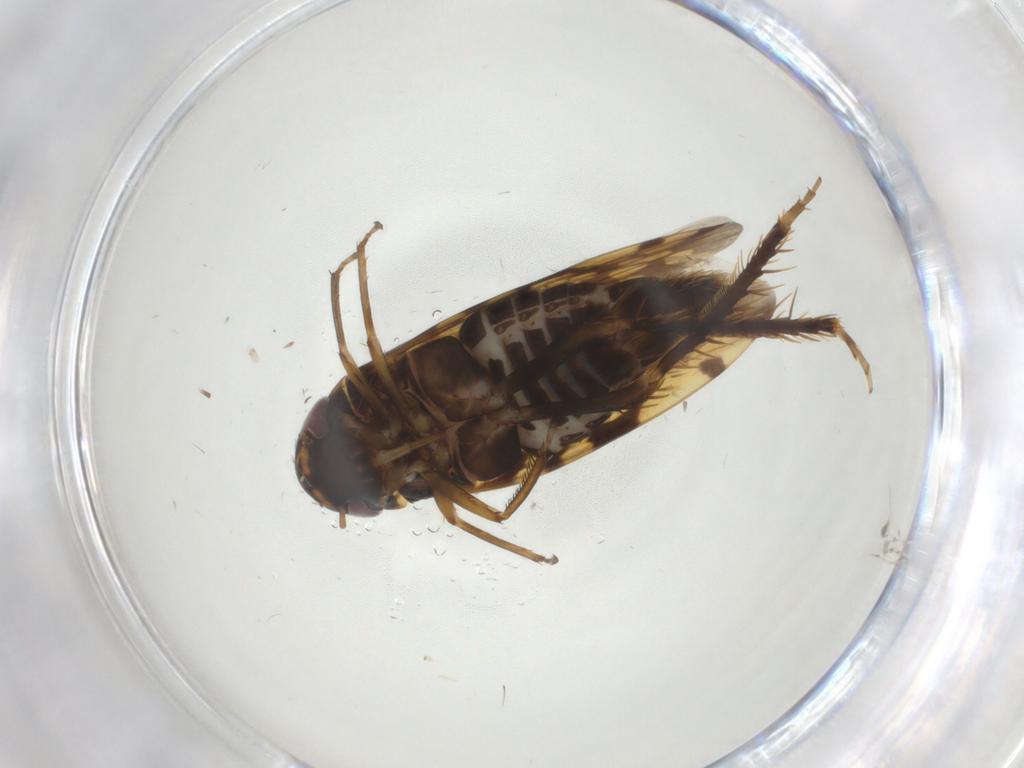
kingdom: Animalia
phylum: Arthropoda
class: Insecta
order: Hemiptera
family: Cicadellidae
